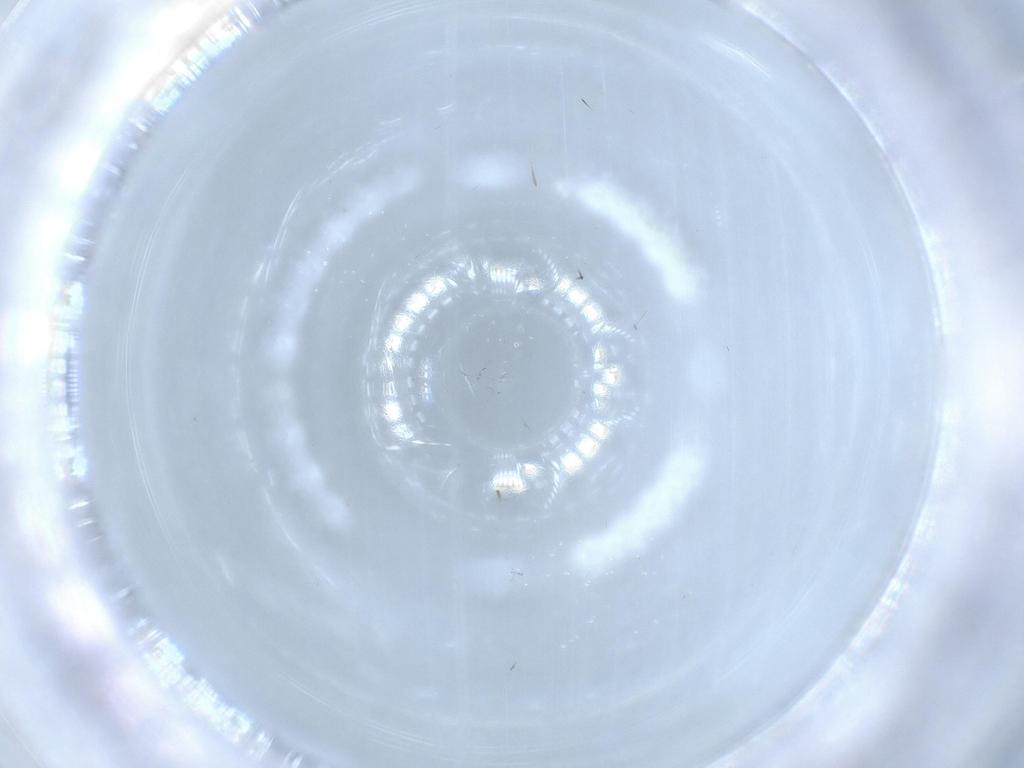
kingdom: Animalia
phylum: Arthropoda
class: Insecta
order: Diptera
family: Sciaridae
